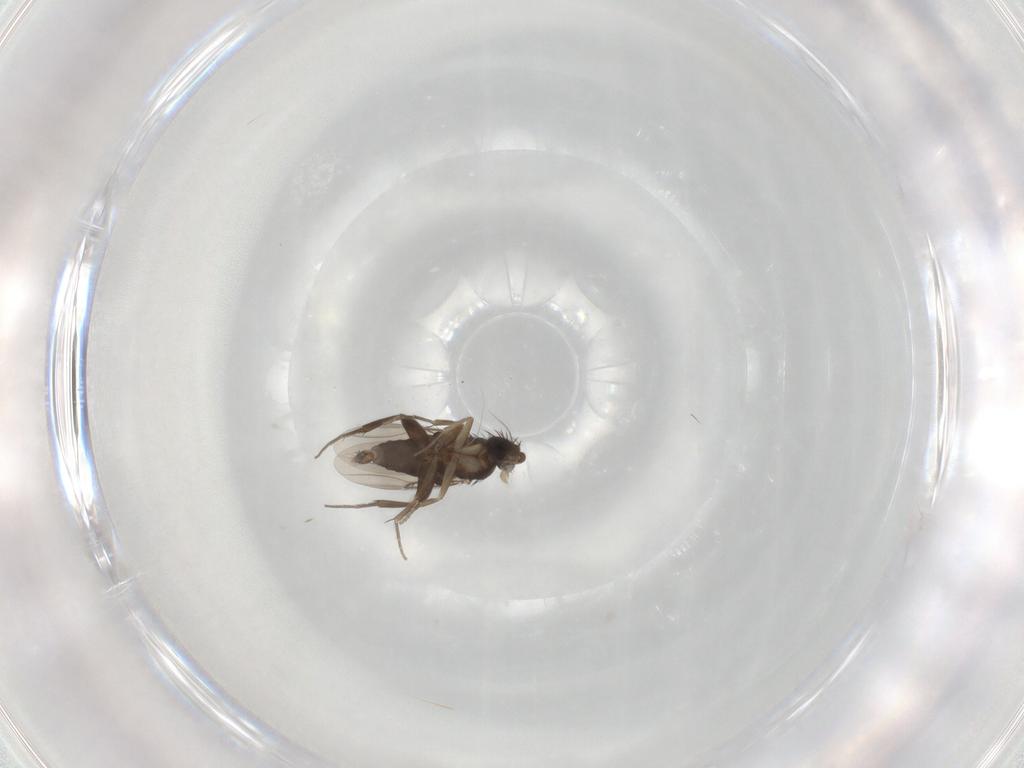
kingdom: Animalia
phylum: Arthropoda
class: Insecta
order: Diptera
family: Phoridae
